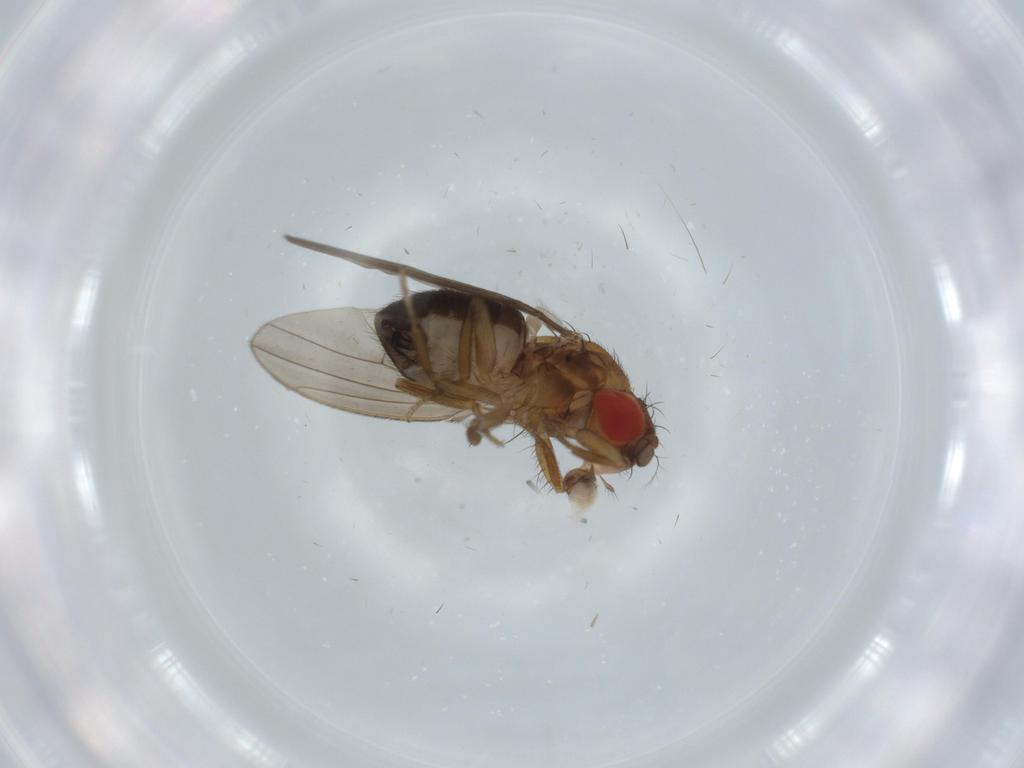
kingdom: Animalia
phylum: Arthropoda
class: Insecta
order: Diptera
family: Drosophilidae
